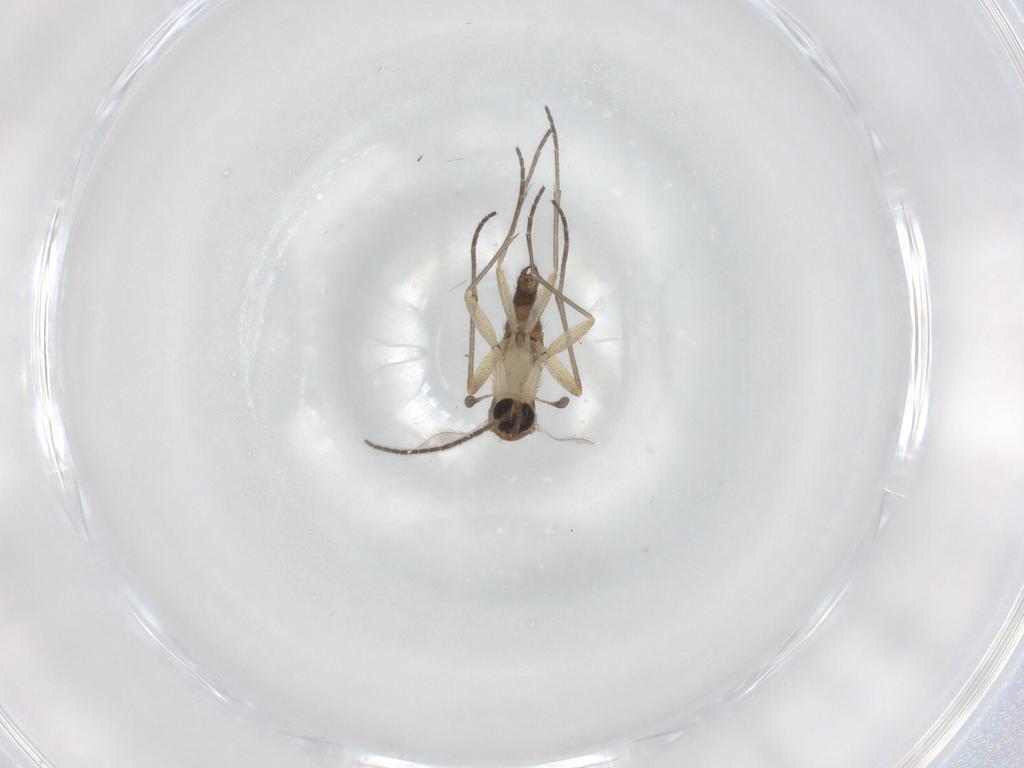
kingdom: Animalia
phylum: Arthropoda
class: Insecta
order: Diptera
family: Sciaridae
